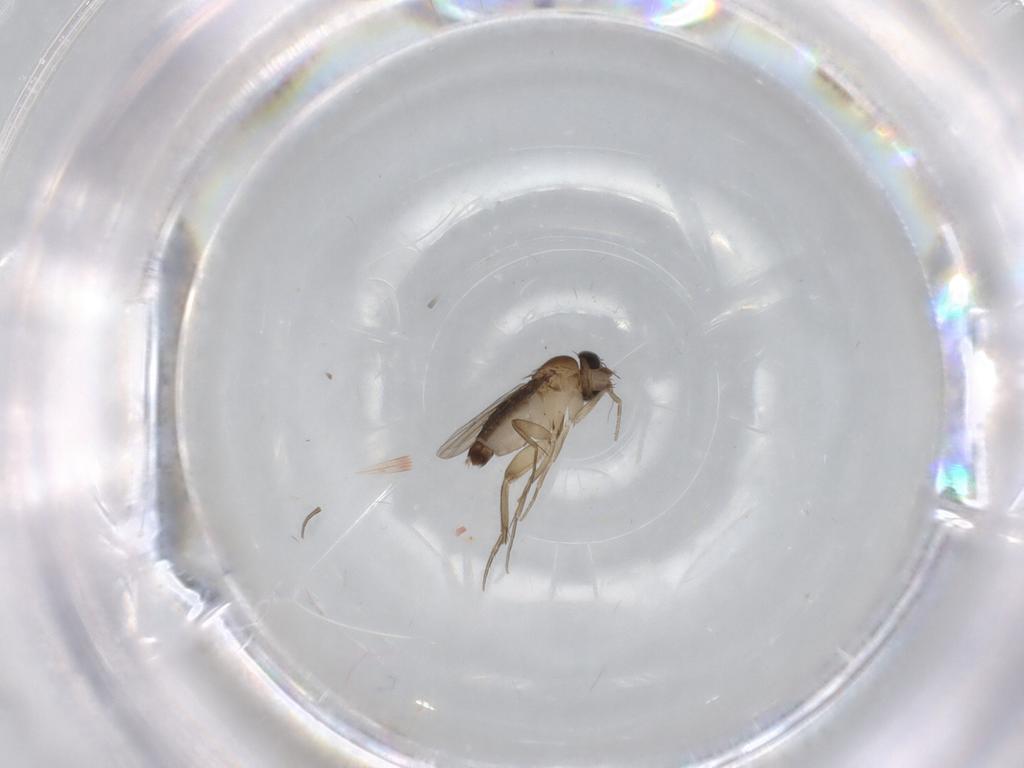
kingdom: Animalia
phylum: Arthropoda
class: Insecta
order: Diptera
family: Phoridae
